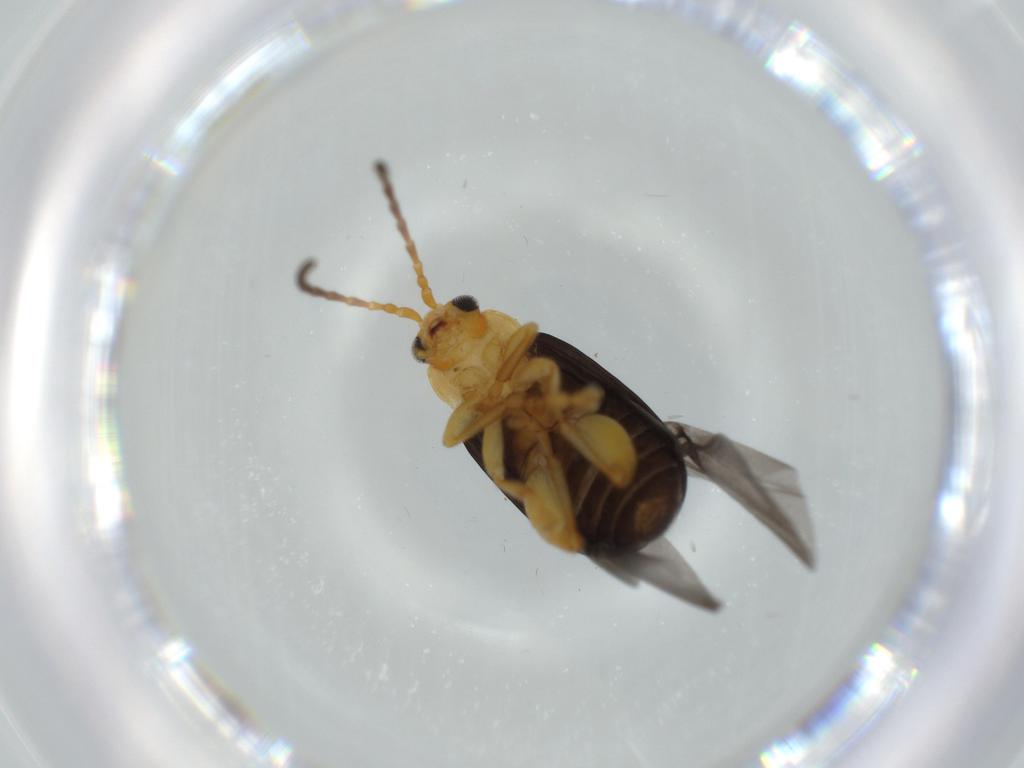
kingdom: Animalia
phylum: Arthropoda
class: Insecta
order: Coleoptera
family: Chrysomelidae
